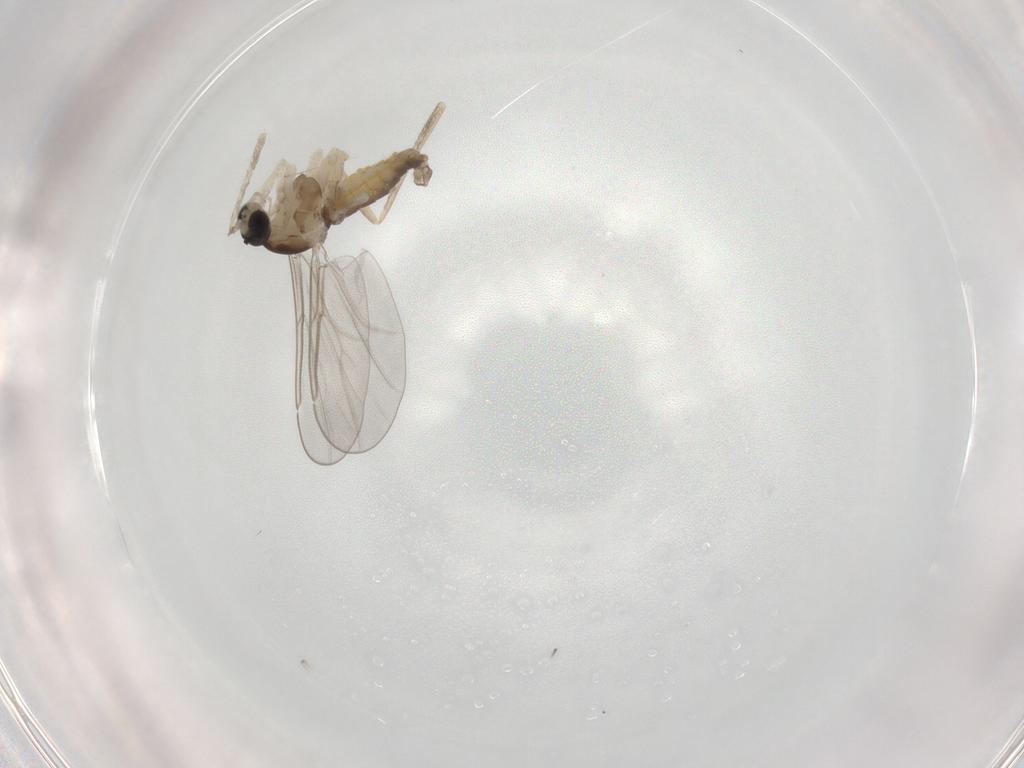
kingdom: Animalia
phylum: Arthropoda
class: Insecta
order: Diptera
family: Cecidomyiidae
